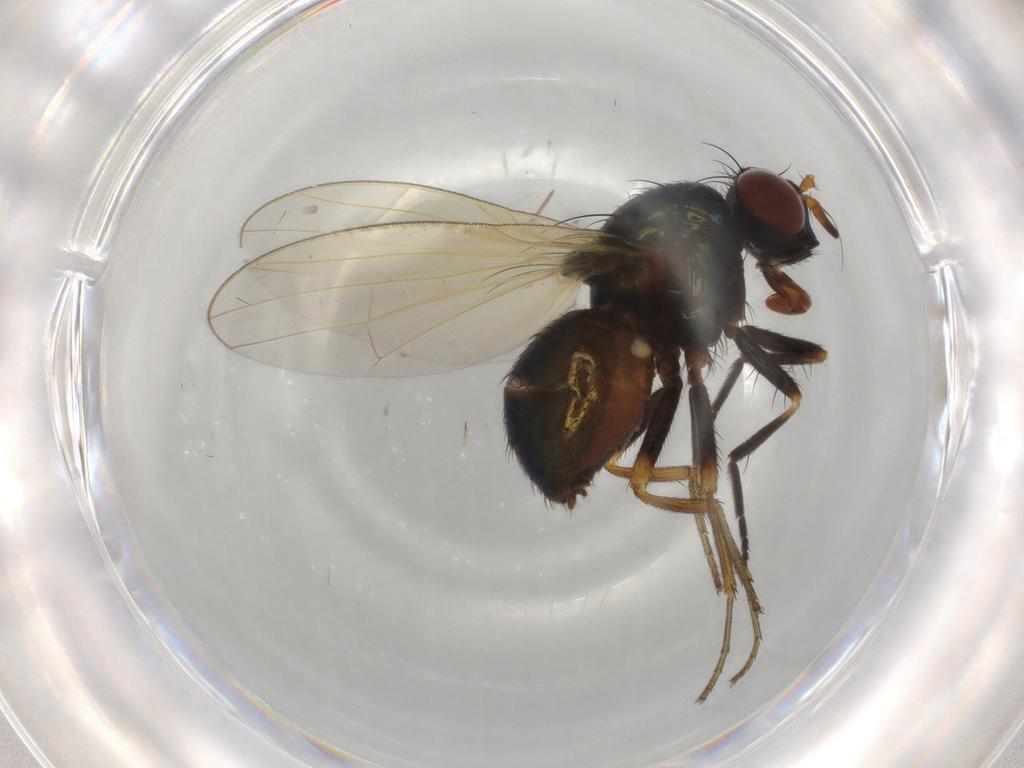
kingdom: Animalia
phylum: Arthropoda
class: Insecta
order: Diptera
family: Lauxaniidae
